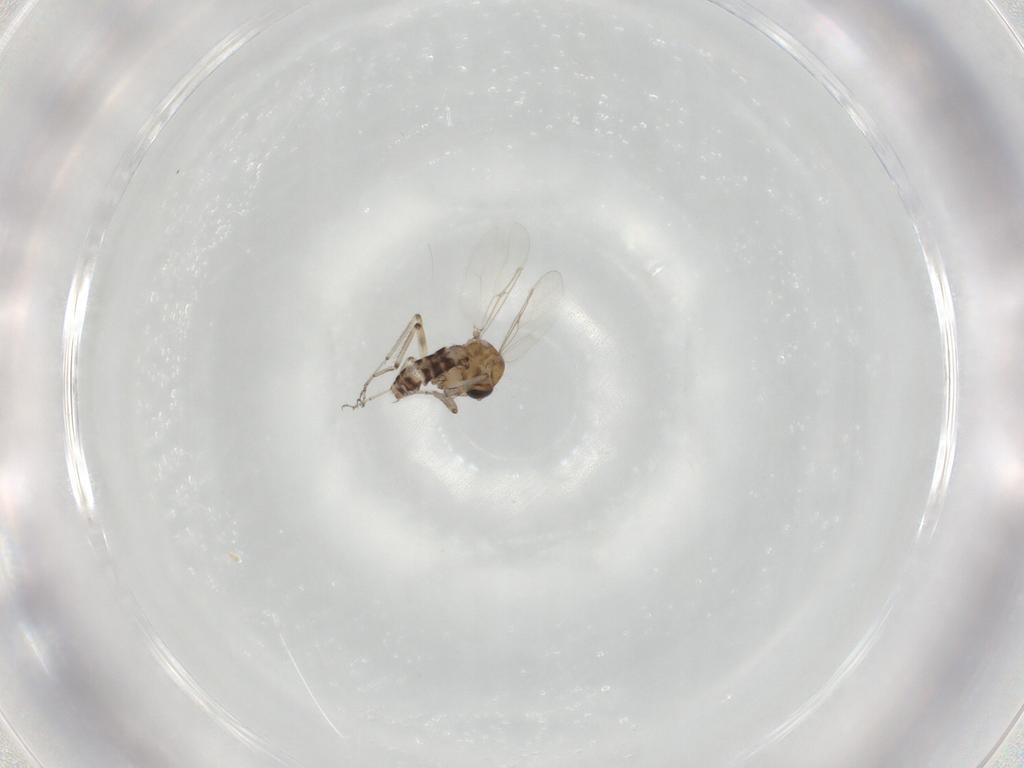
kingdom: Animalia
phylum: Arthropoda
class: Insecta
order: Diptera
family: Ceratopogonidae
